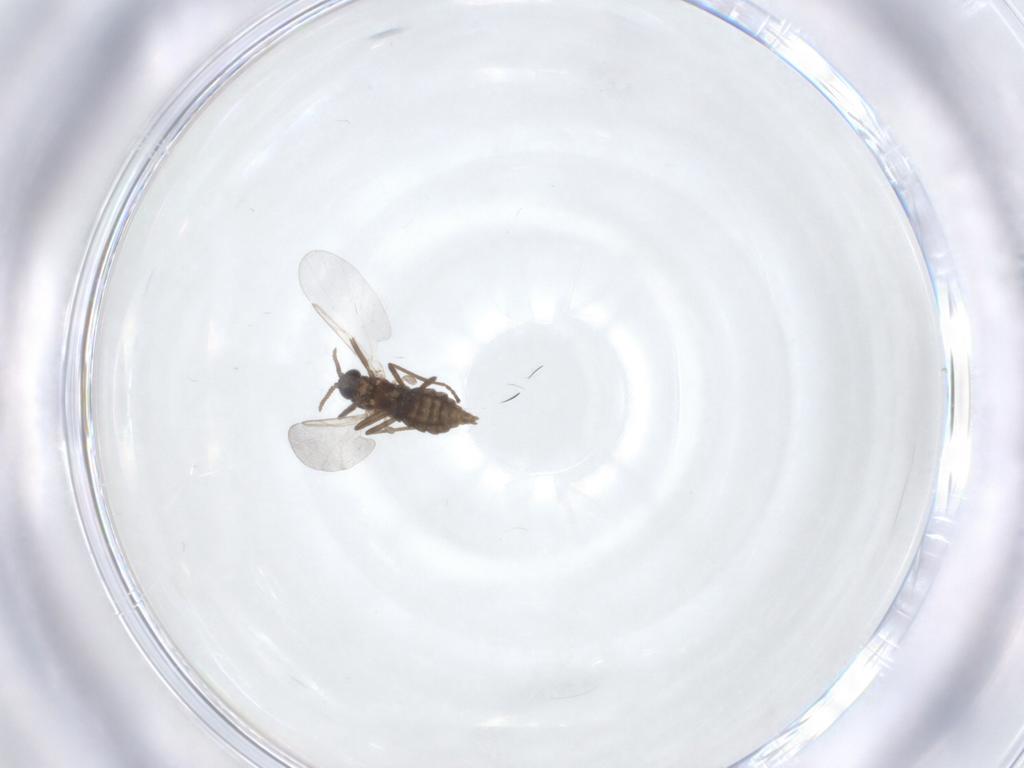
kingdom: Animalia
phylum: Arthropoda
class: Insecta
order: Diptera
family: Cecidomyiidae
